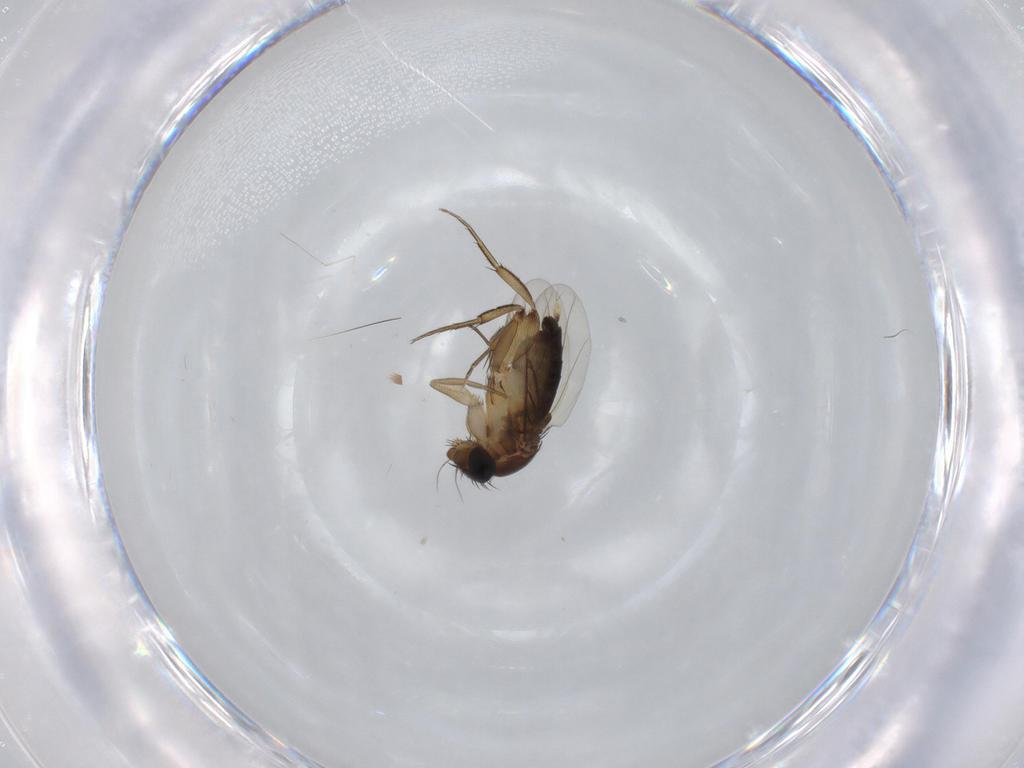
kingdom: Animalia
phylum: Arthropoda
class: Insecta
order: Diptera
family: Phoridae
